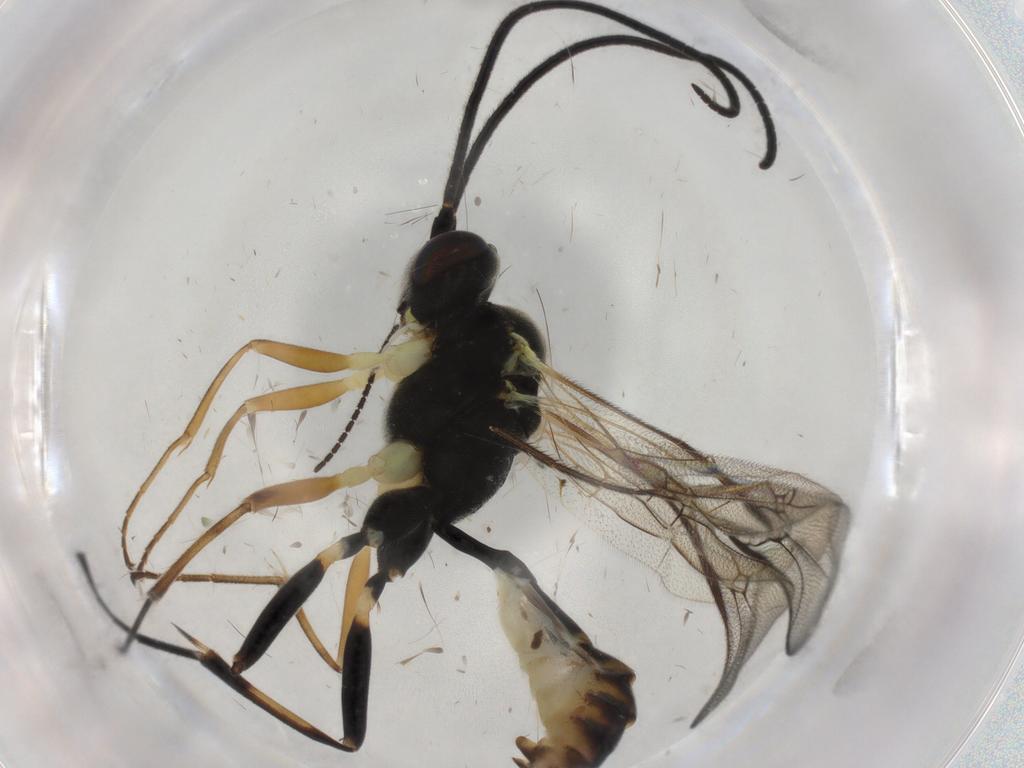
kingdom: Animalia
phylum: Arthropoda
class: Insecta
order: Hymenoptera
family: Ichneumonidae
